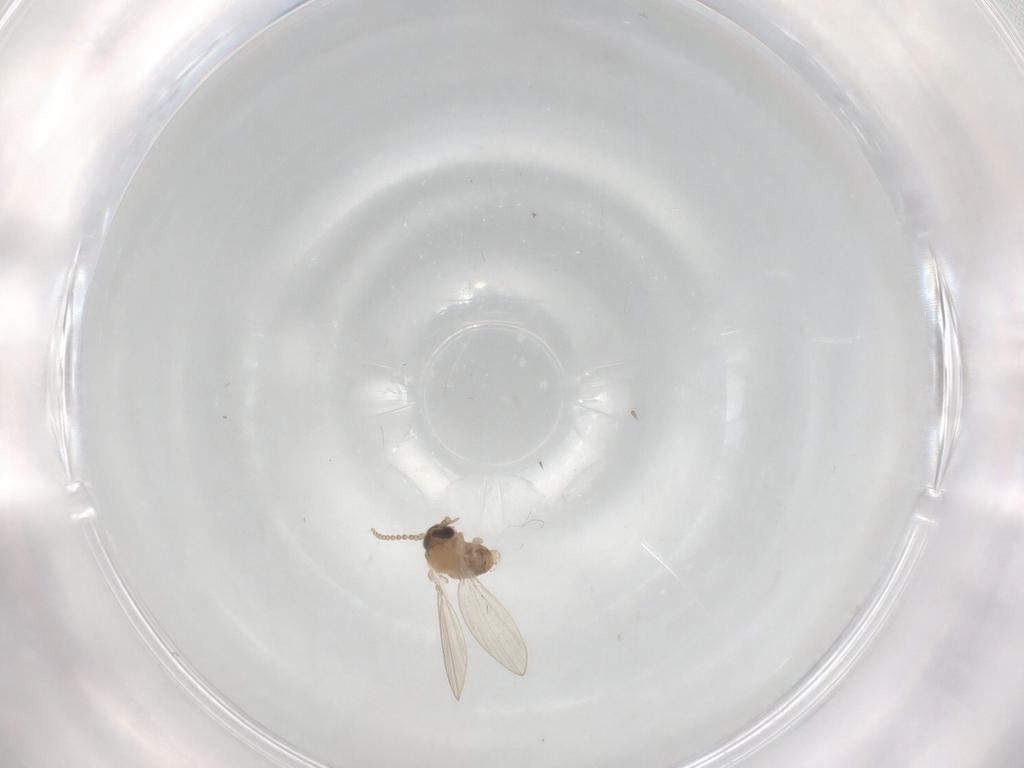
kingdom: Animalia
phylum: Arthropoda
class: Insecta
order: Diptera
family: Psychodidae
